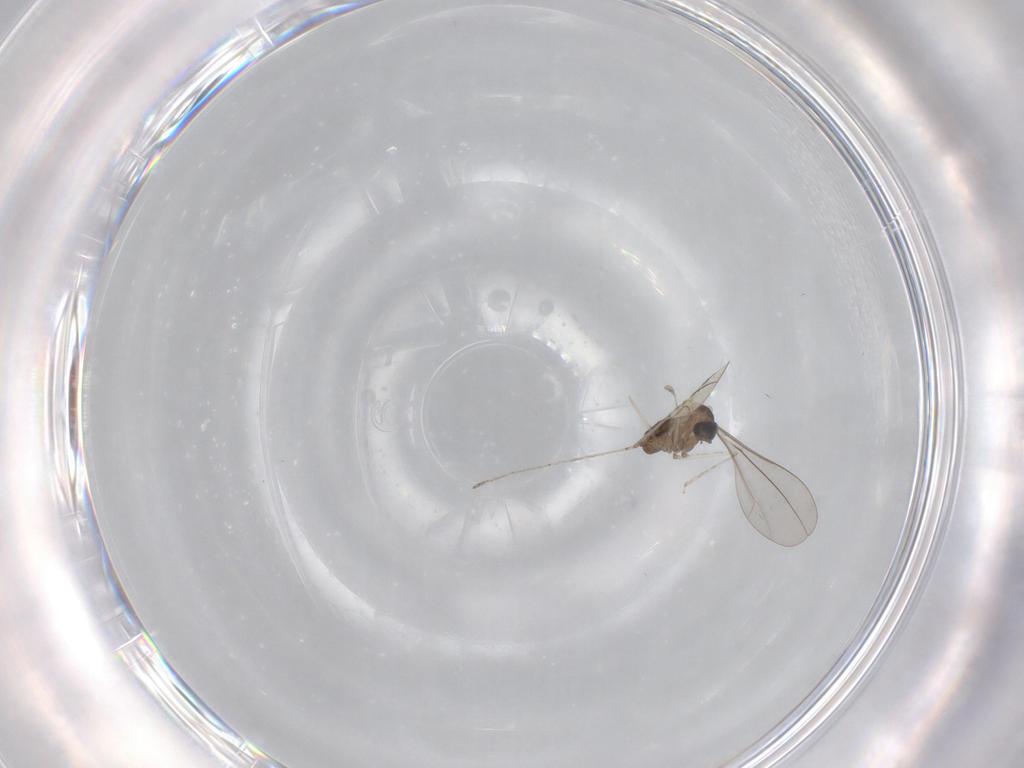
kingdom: Animalia
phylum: Arthropoda
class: Insecta
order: Diptera
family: Cecidomyiidae
